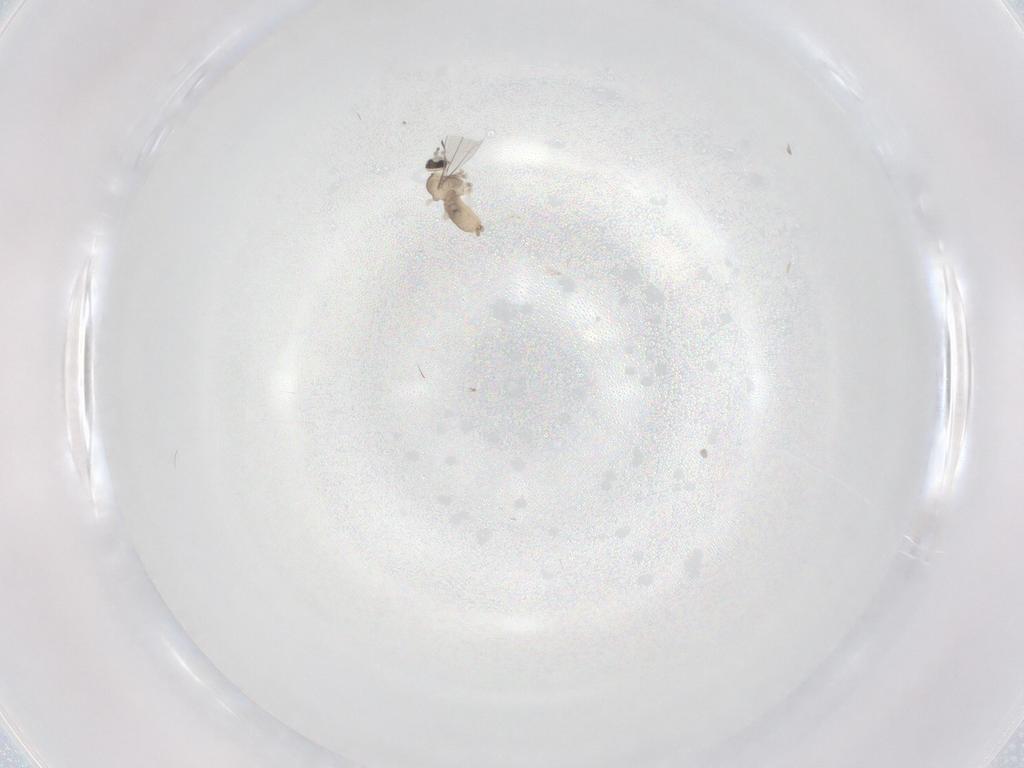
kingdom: Animalia
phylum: Arthropoda
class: Insecta
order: Diptera
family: Cecidomyiidae
